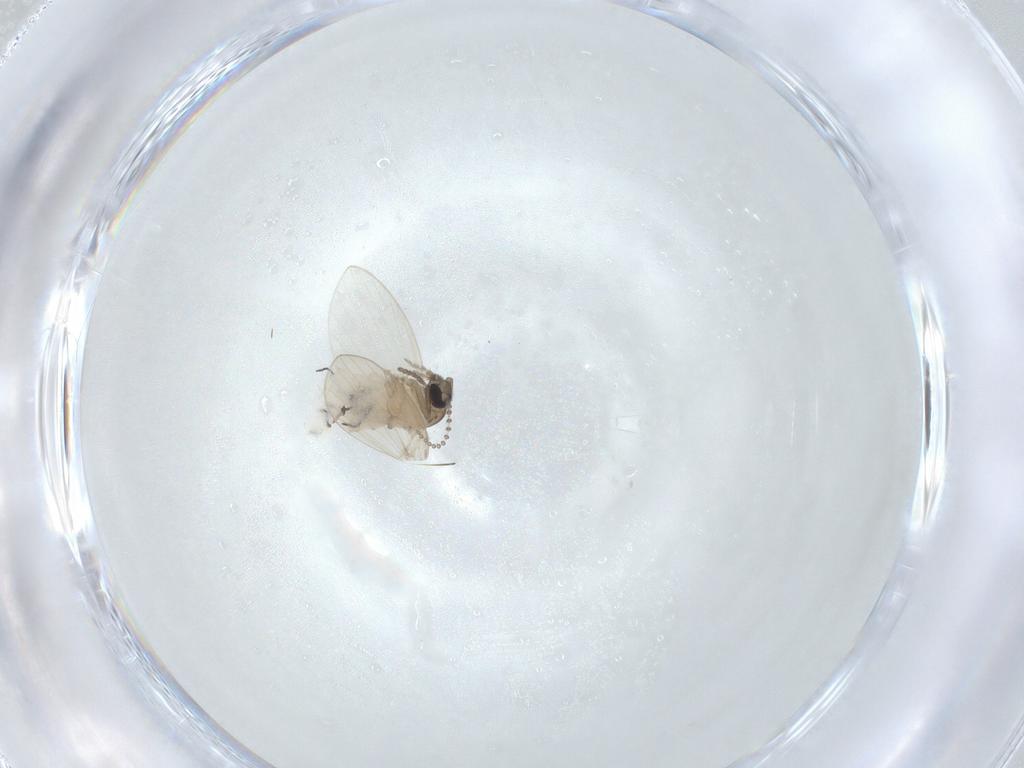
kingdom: Animalia
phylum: Arthropoda
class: Insecta
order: Diptera
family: Psychodidae
